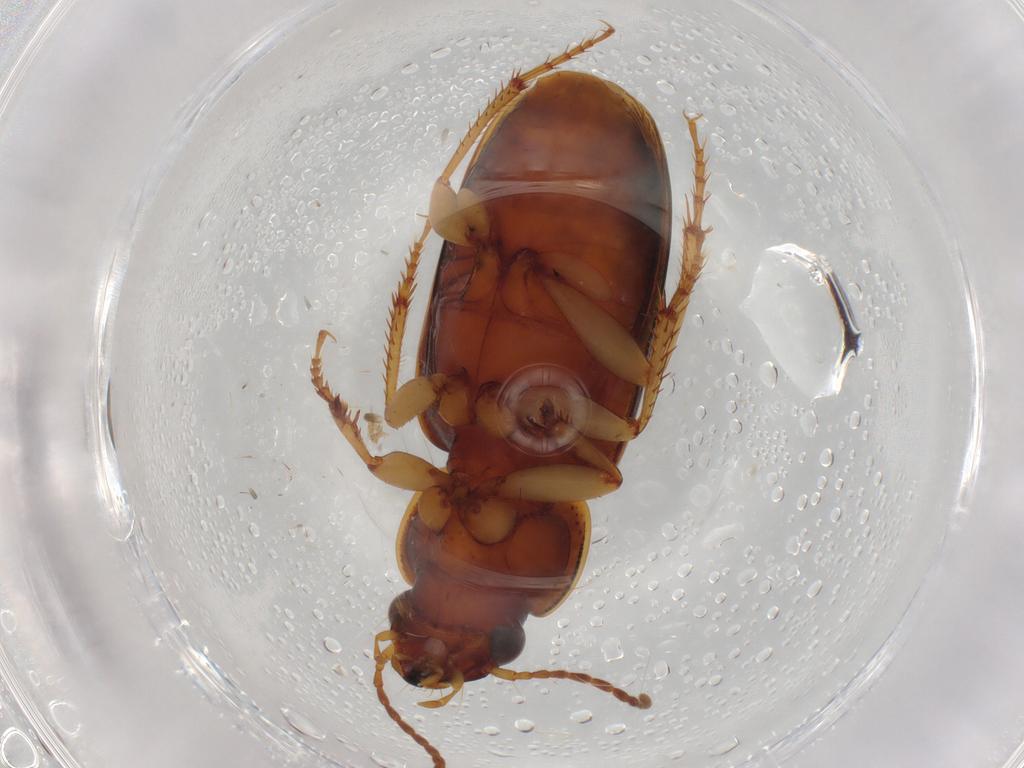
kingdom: Animalia
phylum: Arthropoda
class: Insecta
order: Coleoptera
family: Carabidae
